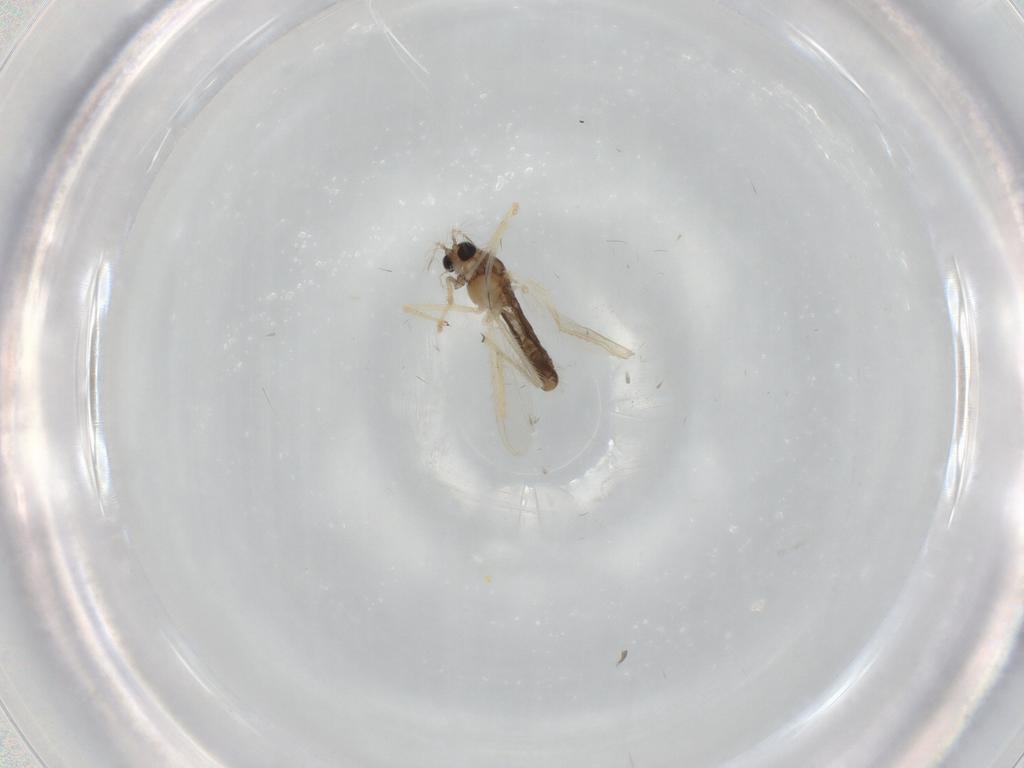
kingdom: Animalia
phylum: Arthropoda
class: Insecta
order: Diptera
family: Chironomidae
